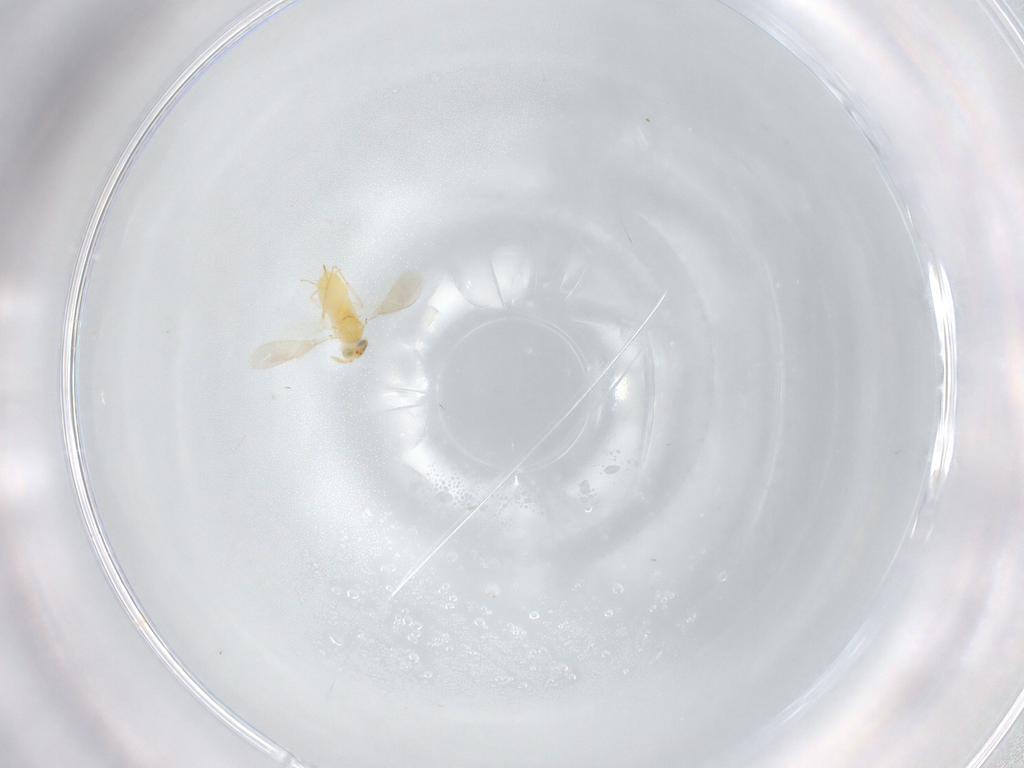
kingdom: Animalia
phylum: Arthropoda
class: Insecta
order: Hymenoptera
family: Aphelinidae
